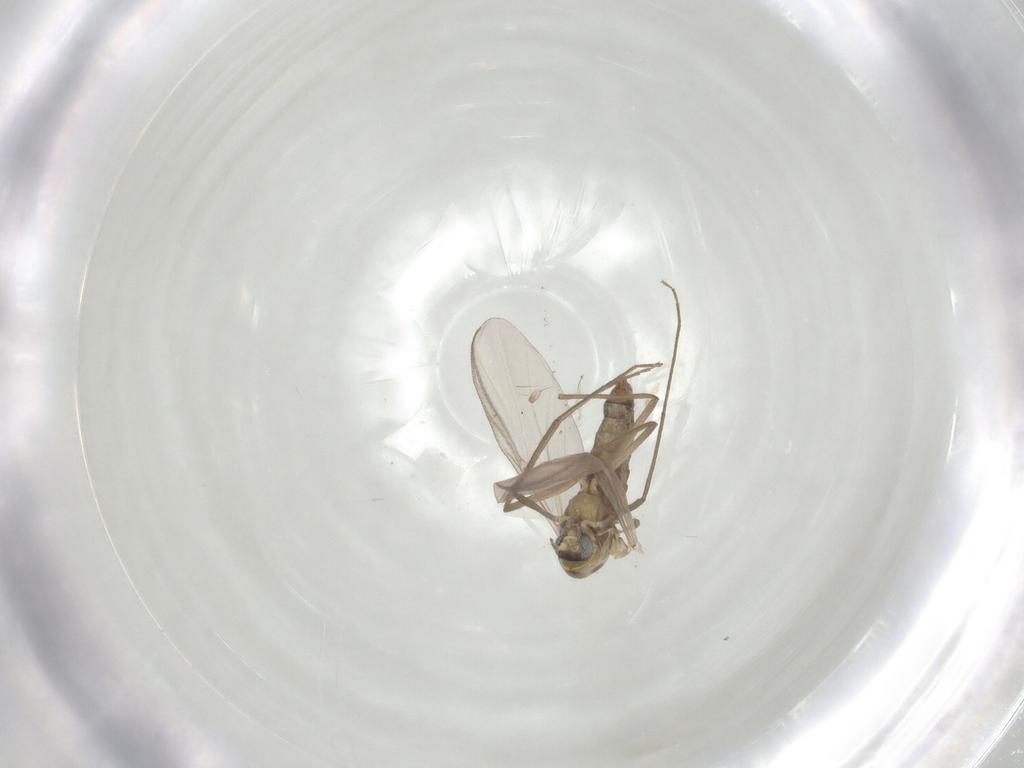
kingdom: Animalia
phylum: Arthropoda
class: Insecta
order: Diptera
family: Chironomidae
